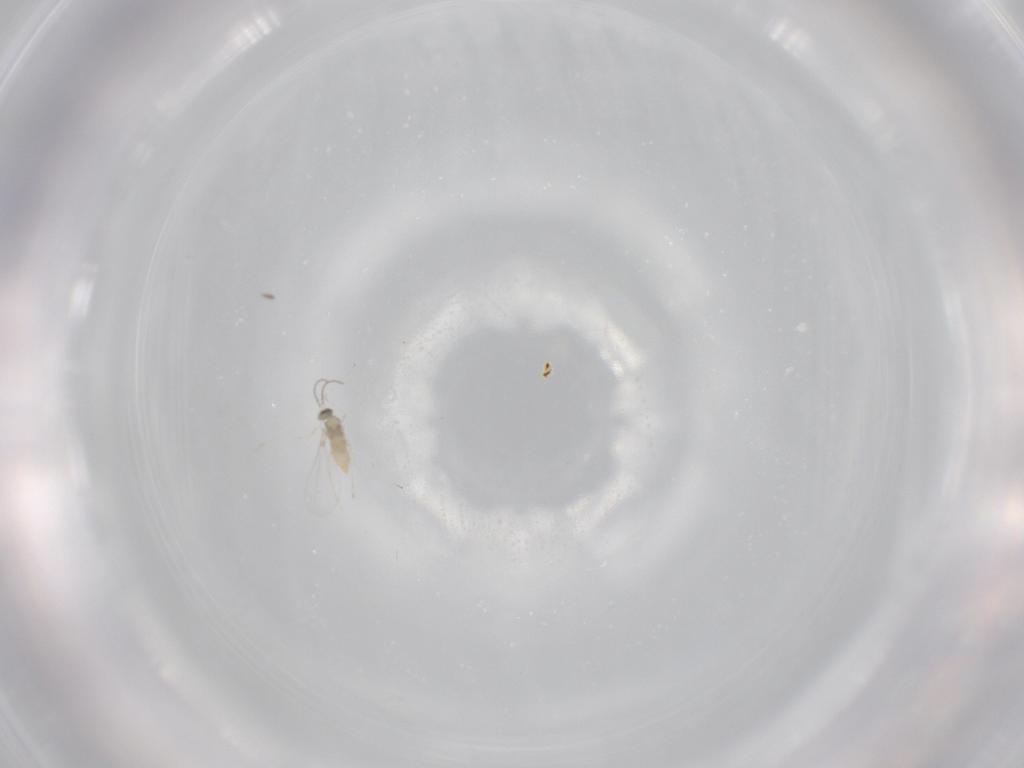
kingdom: Animalia
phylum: Arthropoda
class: Insecta
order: Diptera
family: Cecidomyiidae
